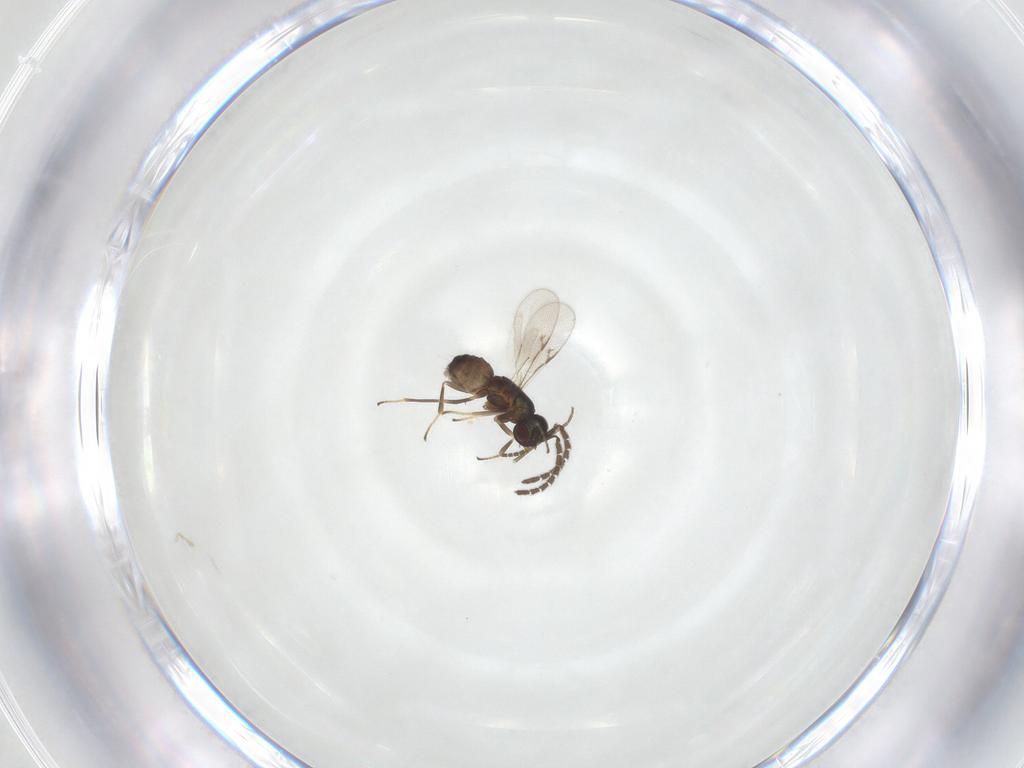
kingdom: Animalia
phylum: Arthropoda
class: Insecta
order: Hymenoptera
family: Encyrtidae
